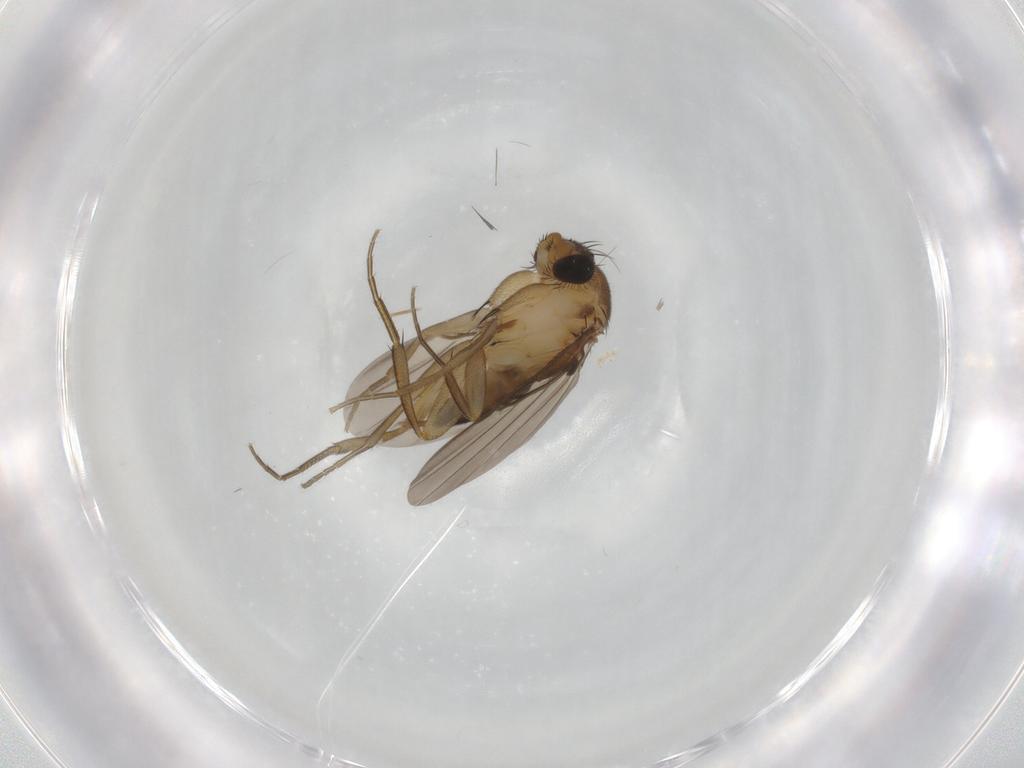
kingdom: Animalia
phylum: Arthropoda
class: Insecta
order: Diptera
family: Phoridae
